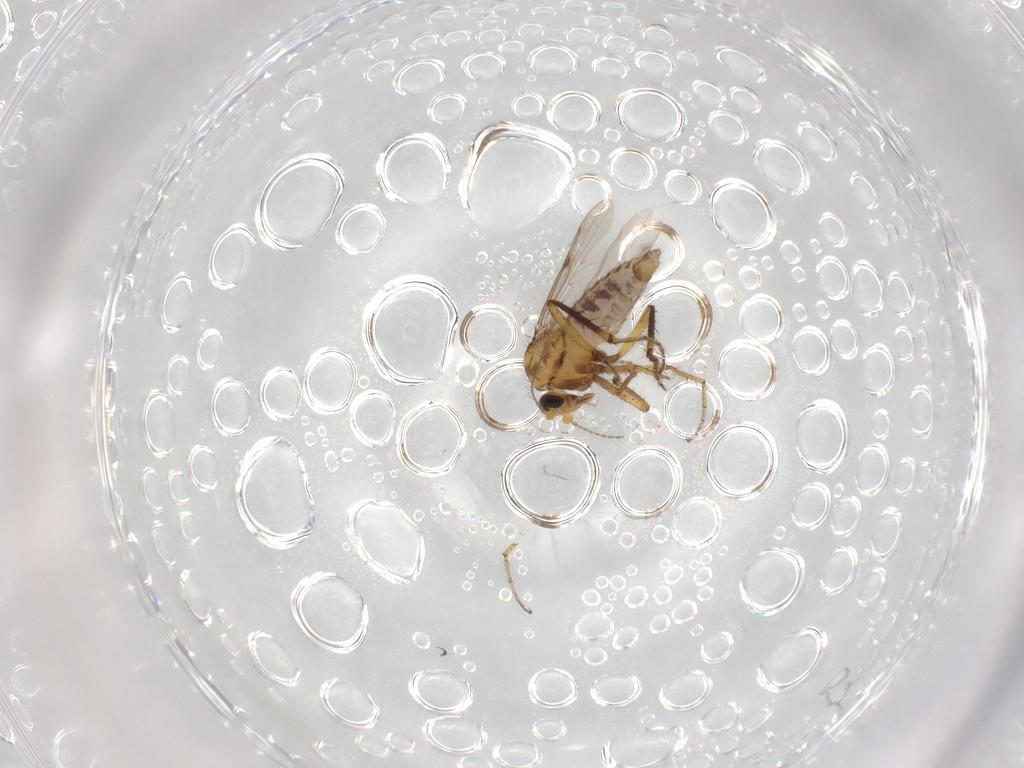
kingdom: Animalia
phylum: Arthropoda
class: Insecta
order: Diptera
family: Ceratopogonidae
